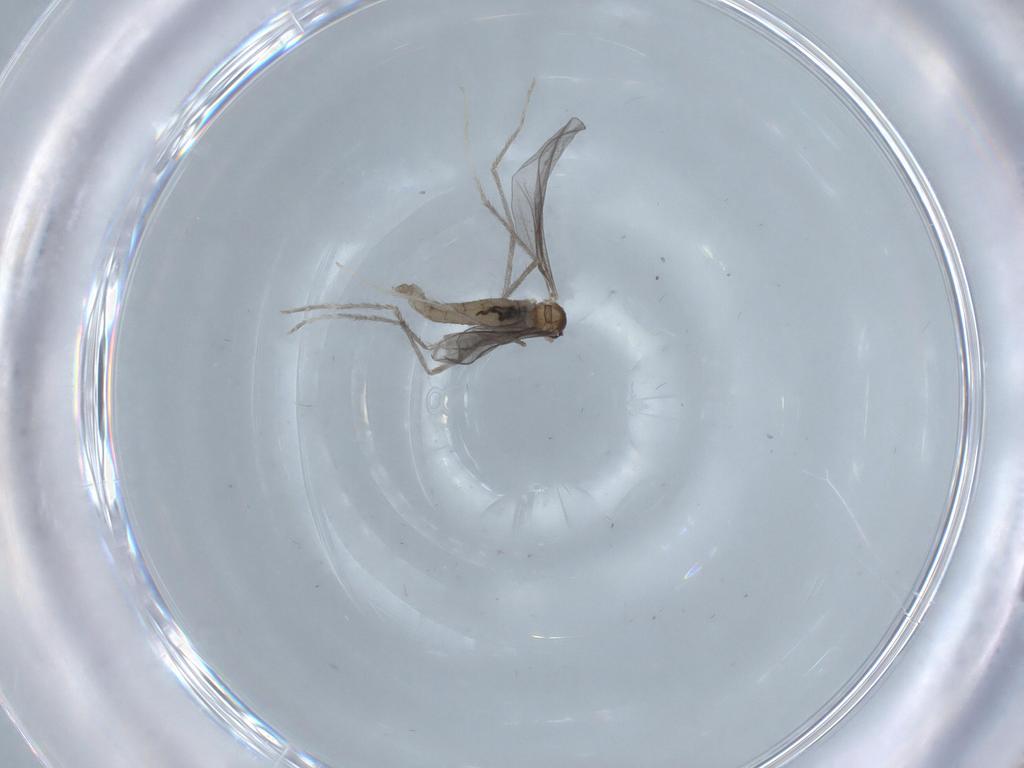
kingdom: Animalia
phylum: Arthropoda
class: Insecta
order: Diptera
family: Cecidomyiidae
